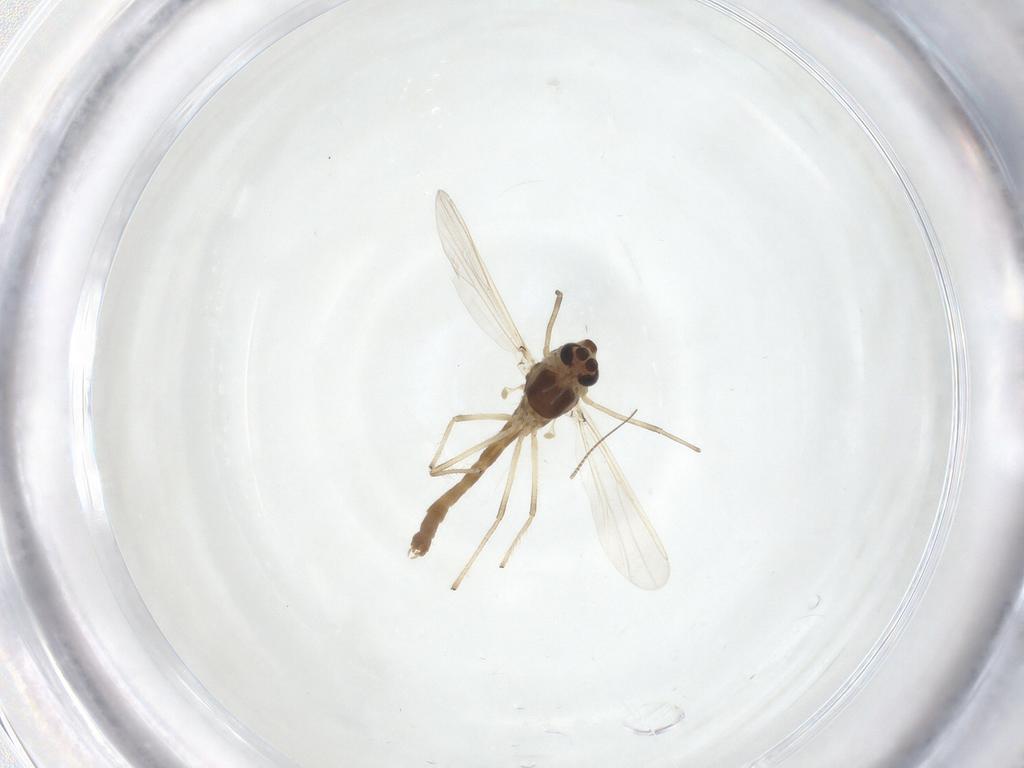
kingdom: Animalia
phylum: Arthropoda
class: Insecta
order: Diptera
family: Chironomidae
